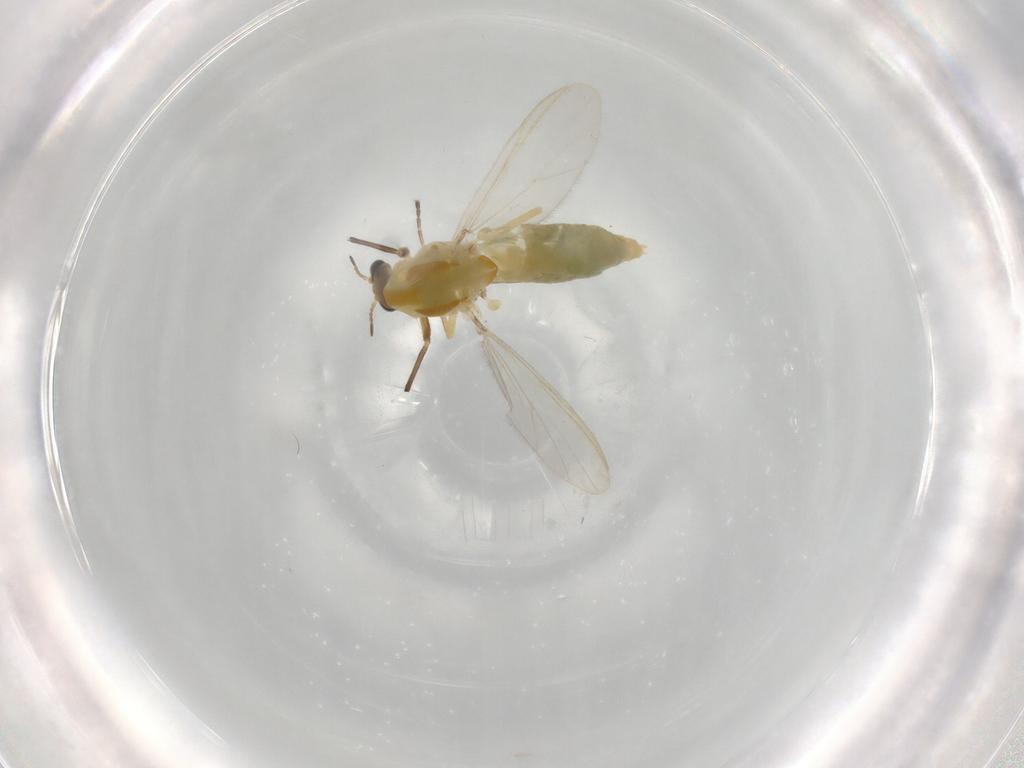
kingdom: Animalia
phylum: Arthropoda
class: Insecta
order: Diptera
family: Chironomidae
